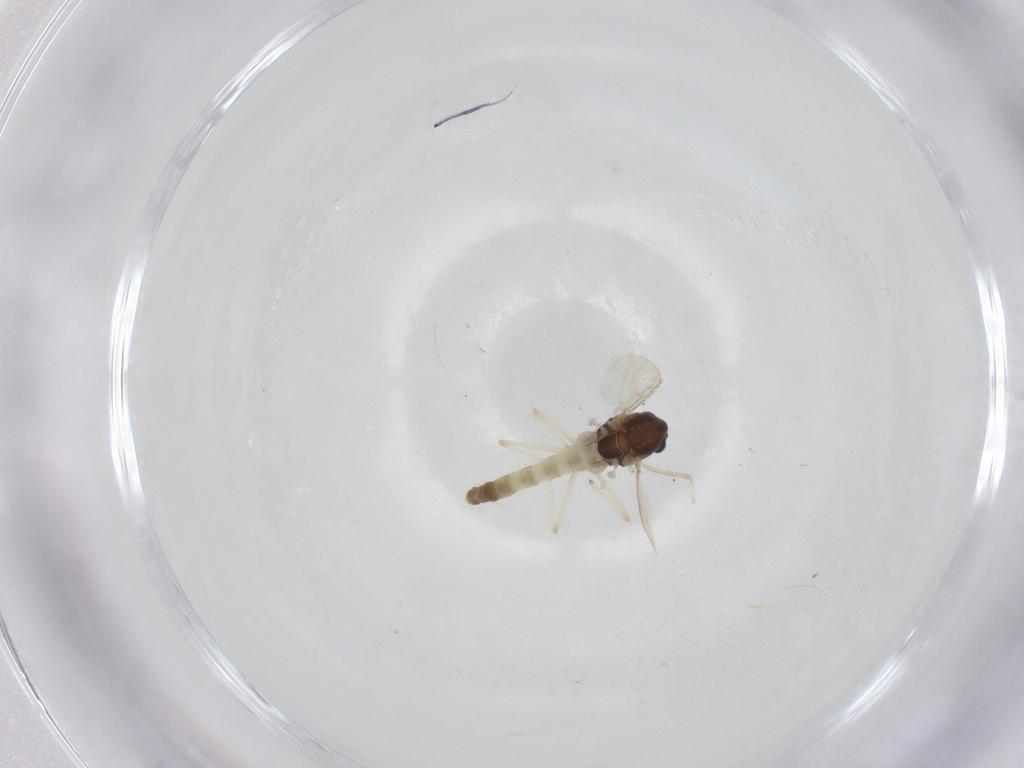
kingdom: Animalia
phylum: Arthropoda
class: Insecta
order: Diptera
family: Chironomidae
